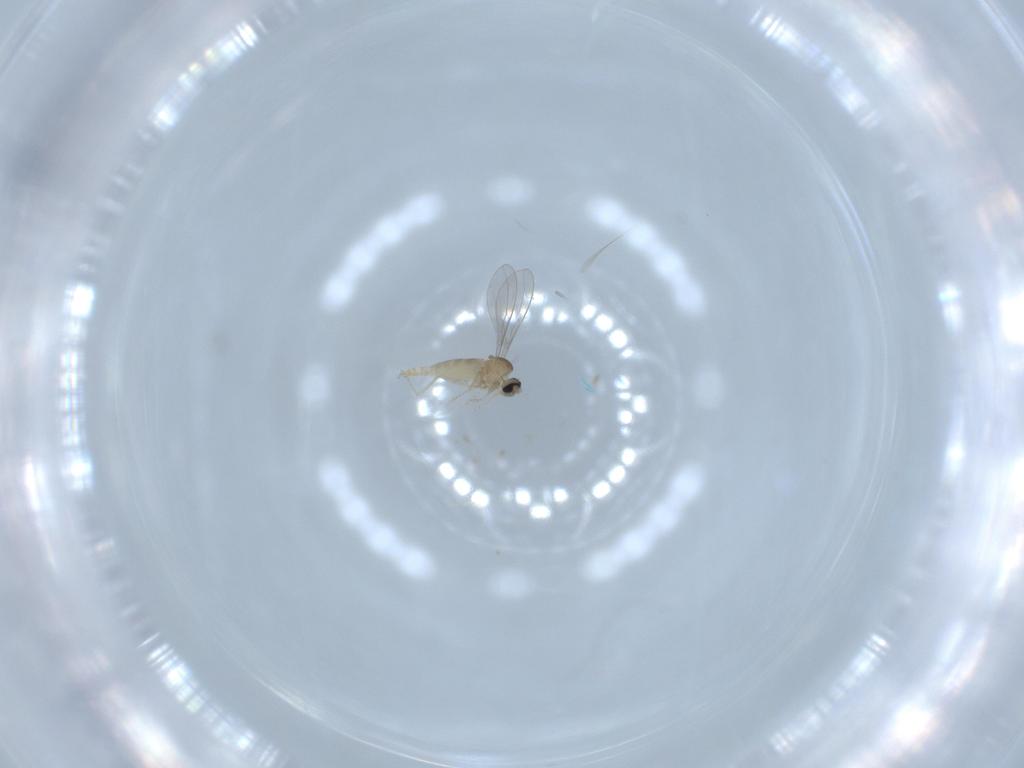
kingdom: Animalia
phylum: Arthropoda
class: Insecta
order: Diptera
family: Cecidomyiidae
